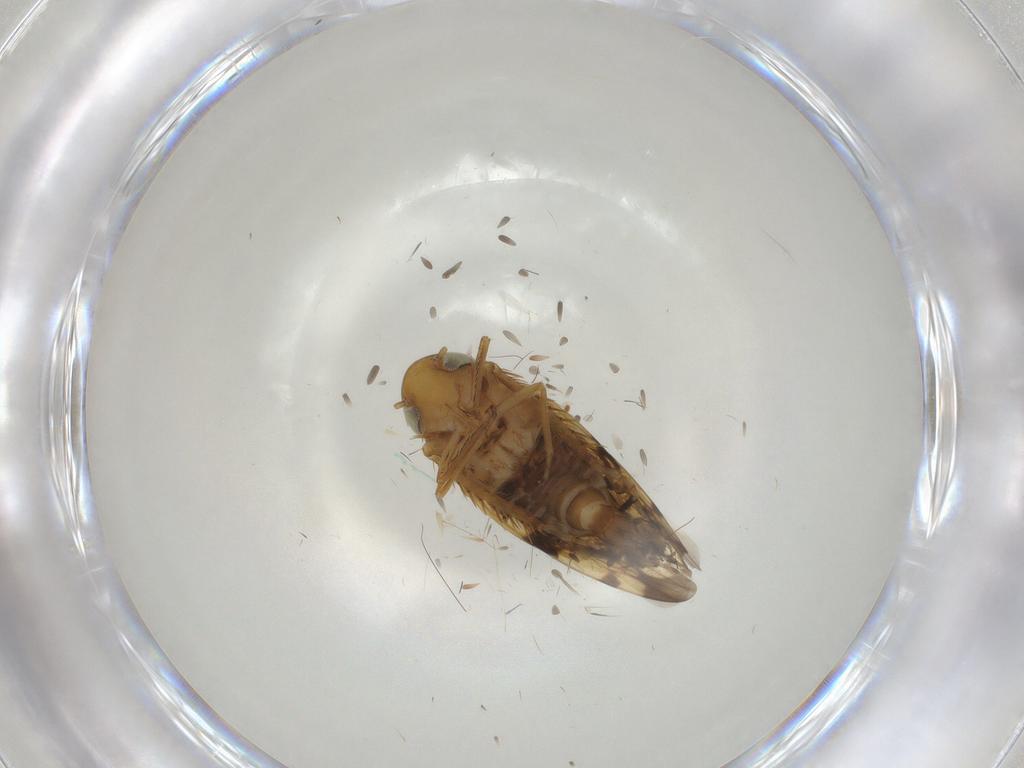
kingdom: Animalia
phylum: Arthropoda
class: Insecta
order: Hemiptera
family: Cicadellidae
